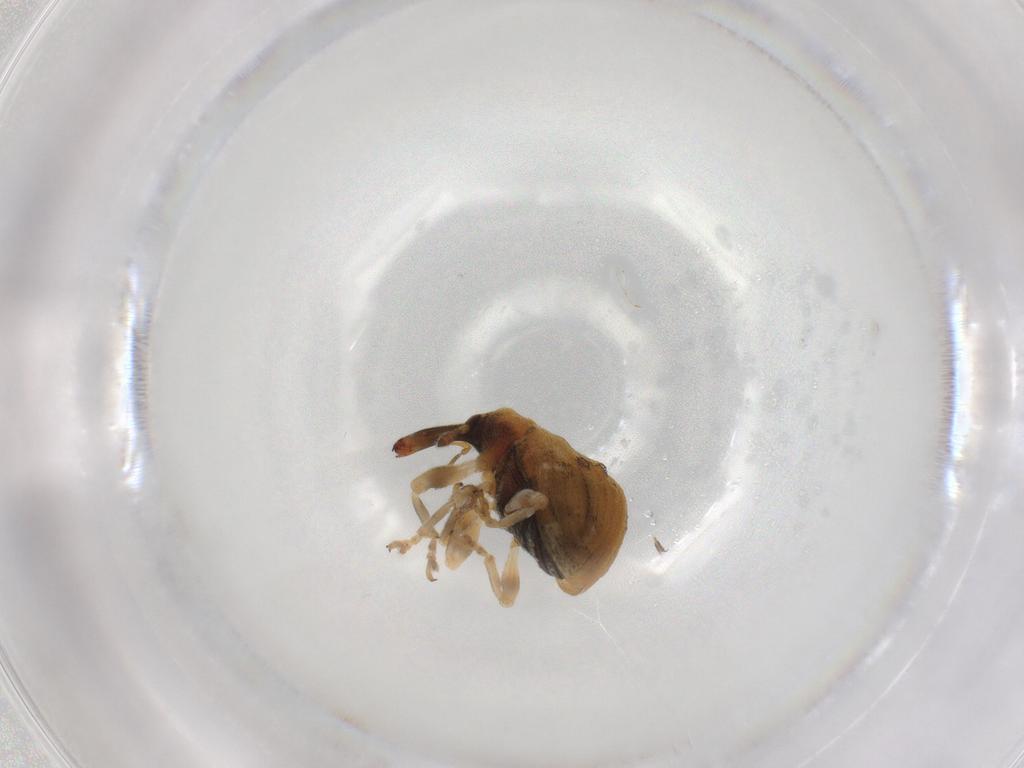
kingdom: Animalia
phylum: Arthropoda
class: Insecta
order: Coleoptera
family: Curculionidae
